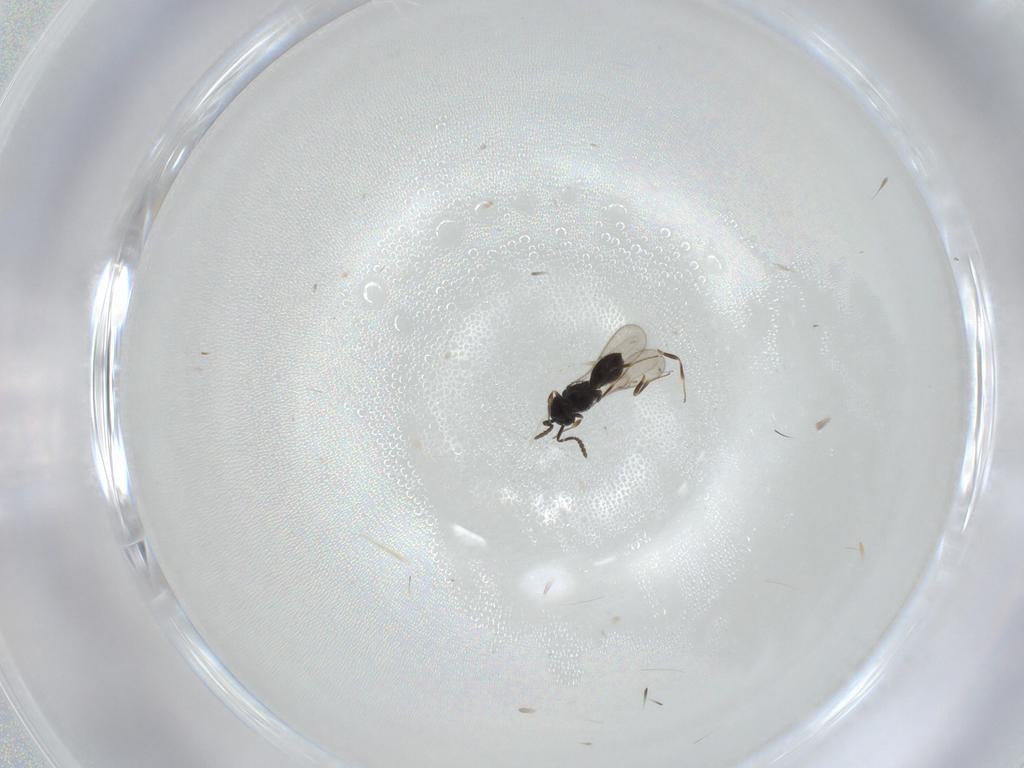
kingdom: Animalia
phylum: Arthropoda
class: Insecta
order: Hymenoptera
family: Scelionidae
